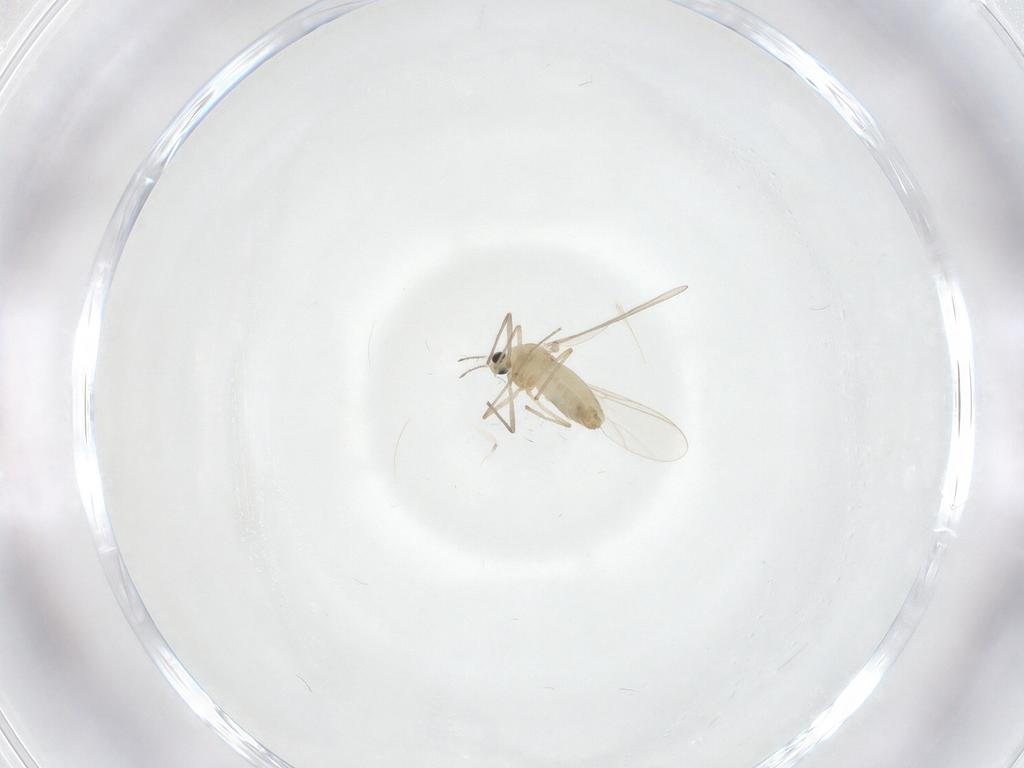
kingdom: Animalia
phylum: Arthropoda
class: Insecta
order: Diptera
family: Chironomidae
